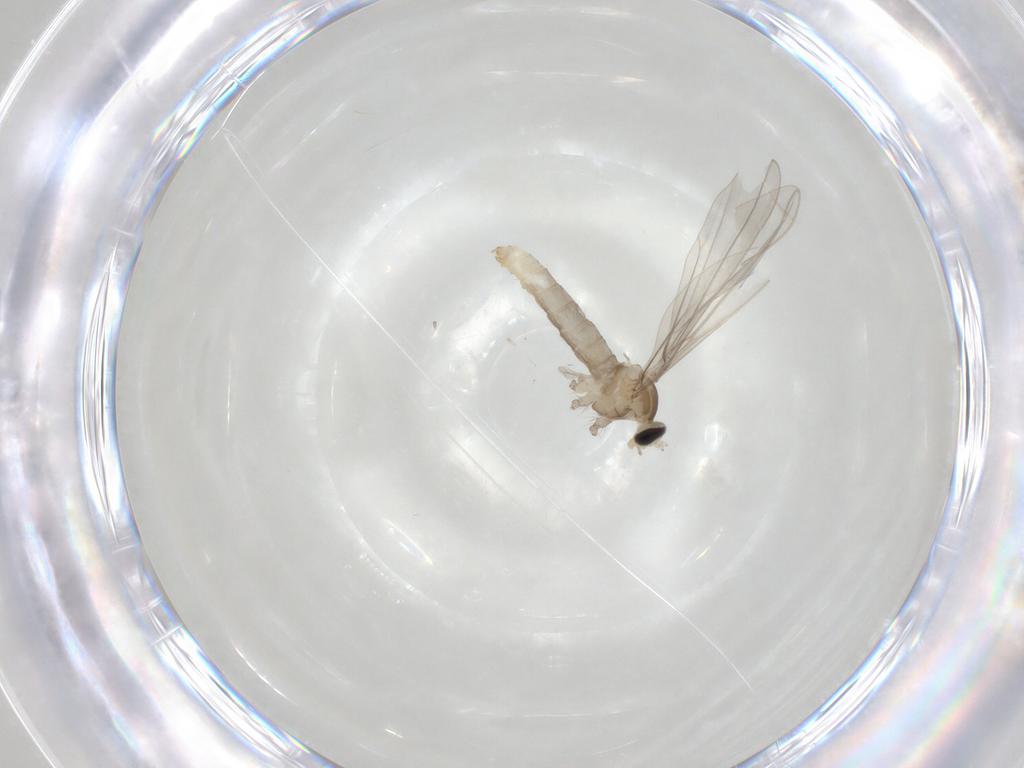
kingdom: Animalia
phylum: Arthropoda
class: Insecta
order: Diptera
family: Cecidomyiidae
